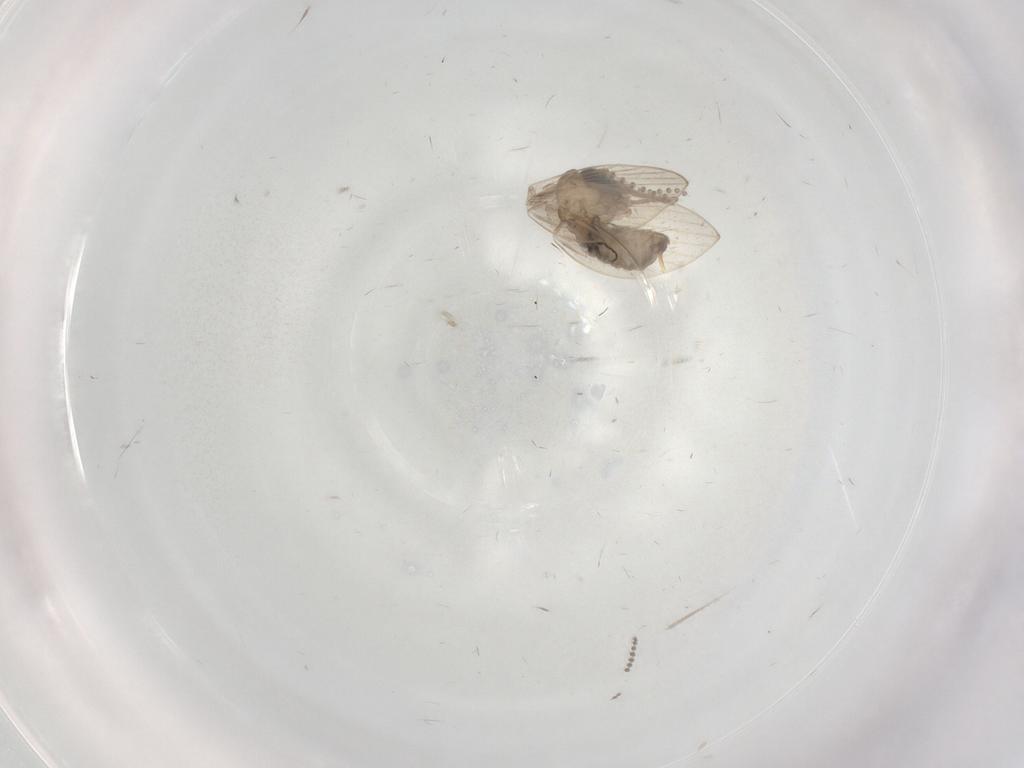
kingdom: Animalia
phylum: Arthropoda
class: Insecta
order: Diptera
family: Psychodidae
